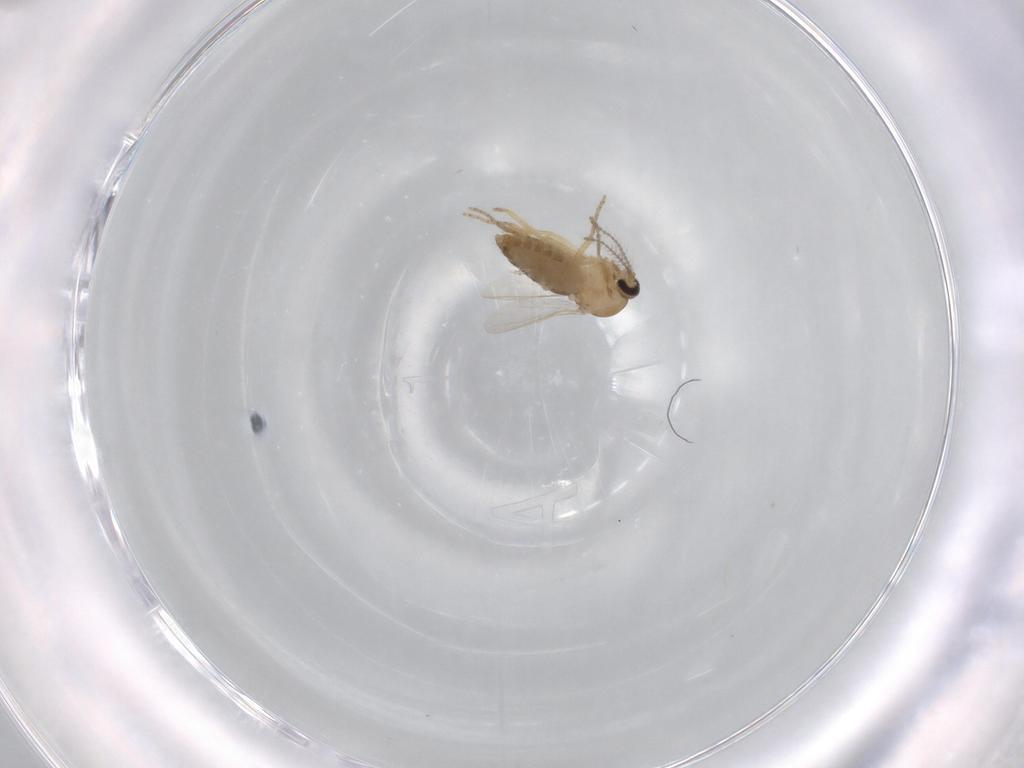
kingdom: Animalia
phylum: Arthropoda
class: Insecta
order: Diptera
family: Ceratopogonidae
